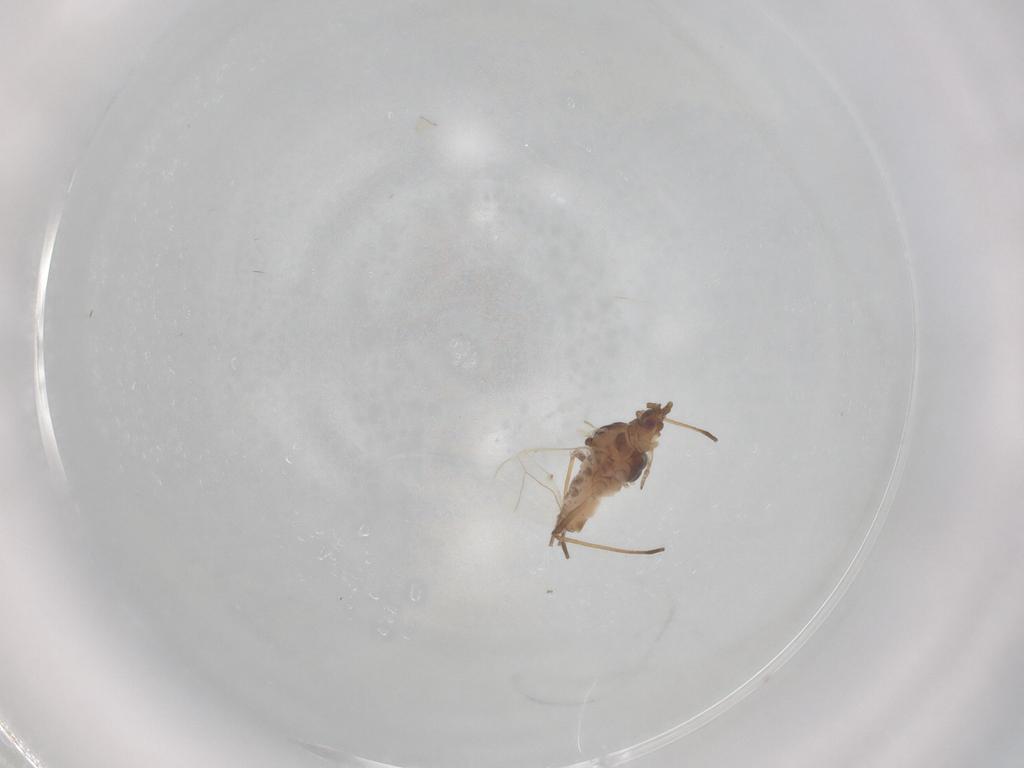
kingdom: Animalia
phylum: Arthropoda
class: Insecta
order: Hemiptera
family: Aphididae
